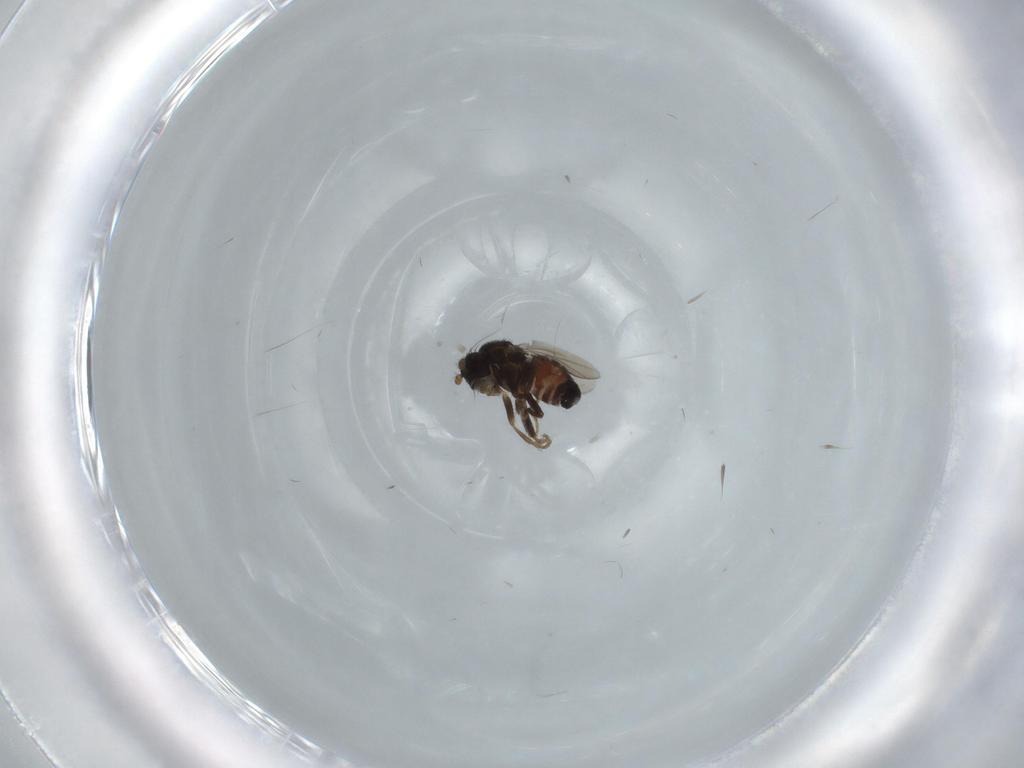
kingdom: Animalia
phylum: Arthropoda
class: Insecta
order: Diptera
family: Sphaeroceridae
